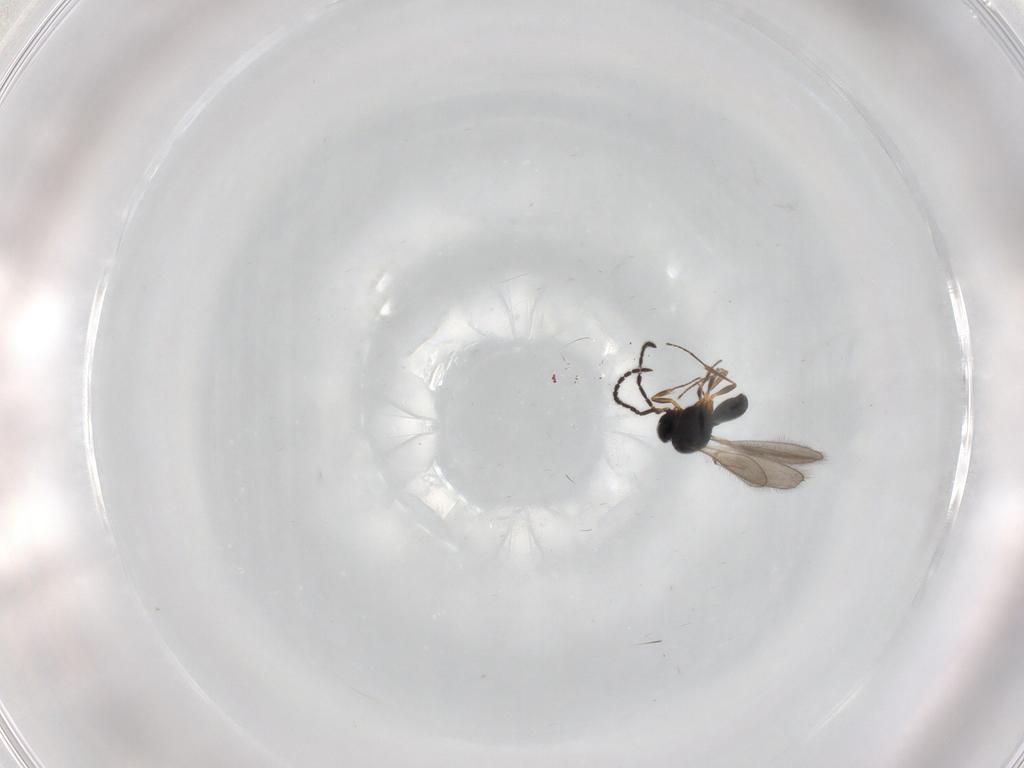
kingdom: Animalia
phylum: Arthropoda
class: Insecta
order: Hymenoptera
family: Scelionidae
